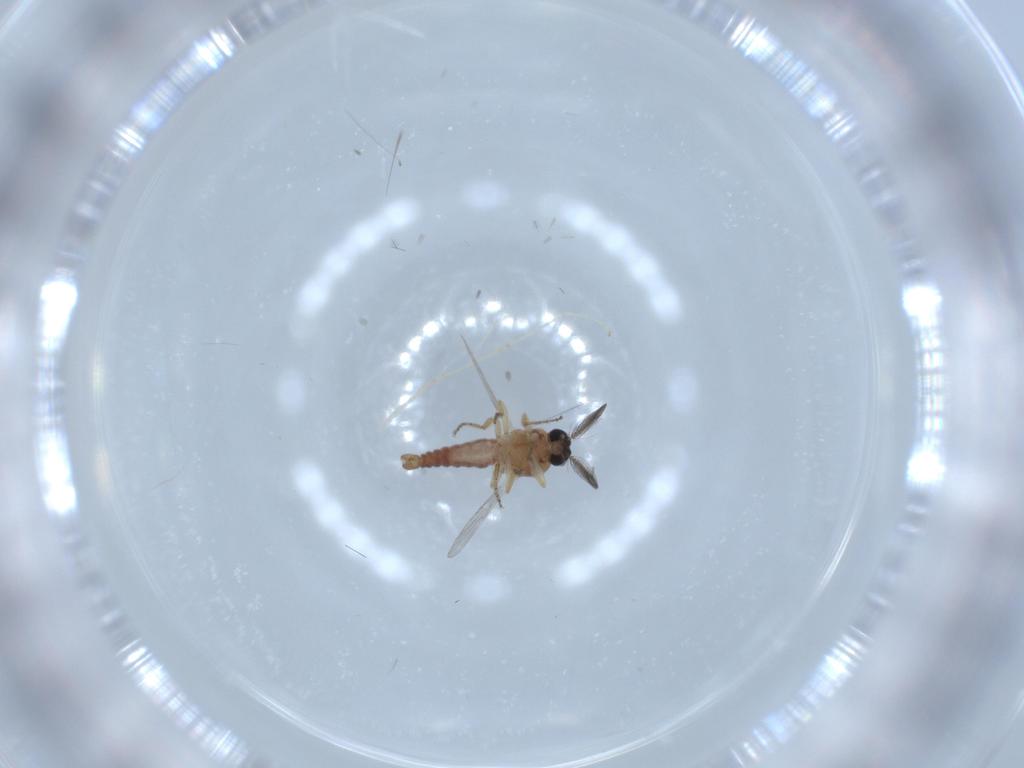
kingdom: Animalia
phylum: Arthropoda
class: Insecta
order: Diptera
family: Ceratopogonidae
